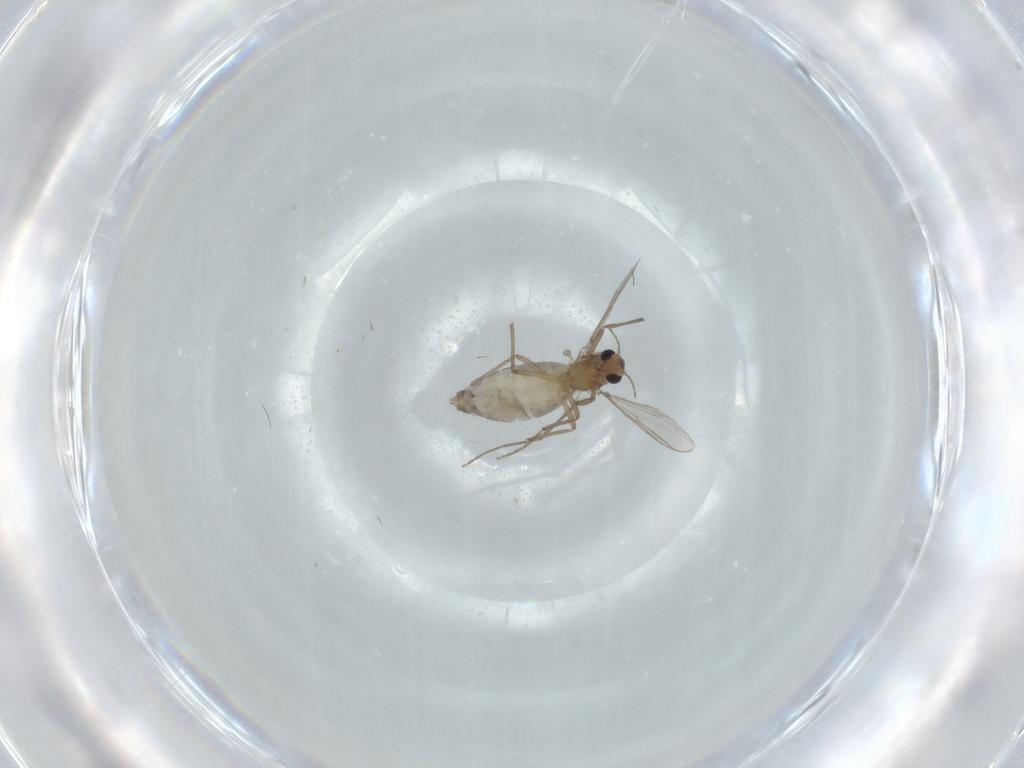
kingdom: Animalia
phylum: Arthropoda
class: Insecta
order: Diptera
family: Chironomidae
